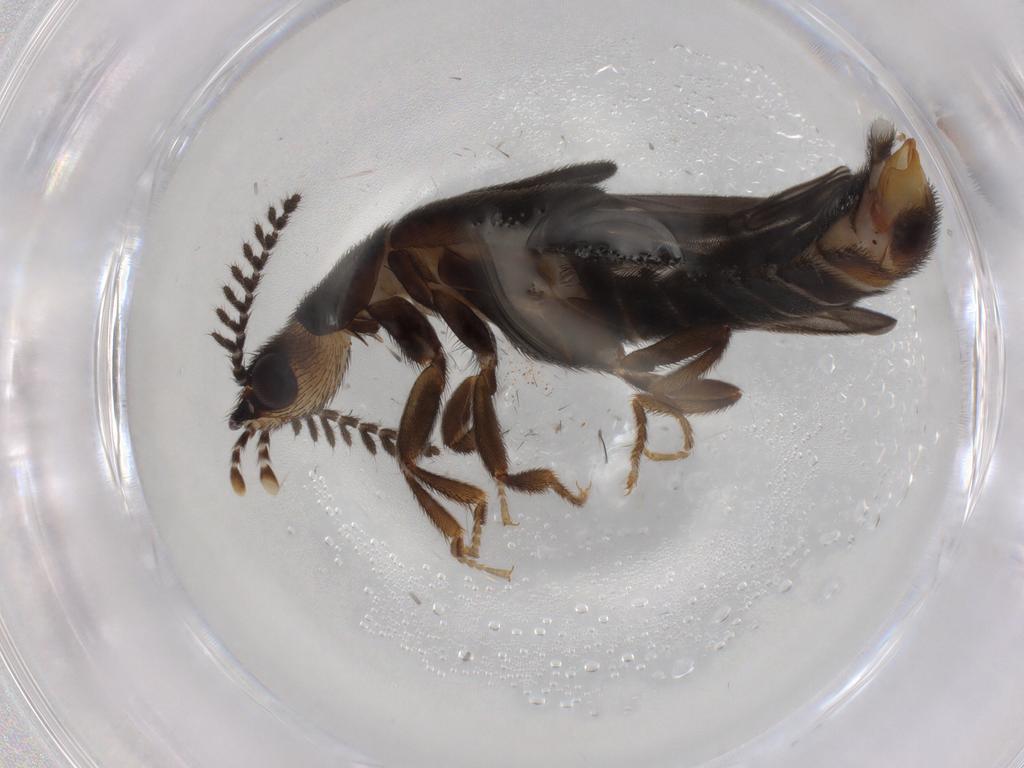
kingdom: Animalia
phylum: Arthropoda
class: Insecta
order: Coleoptera
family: Phengodidae
